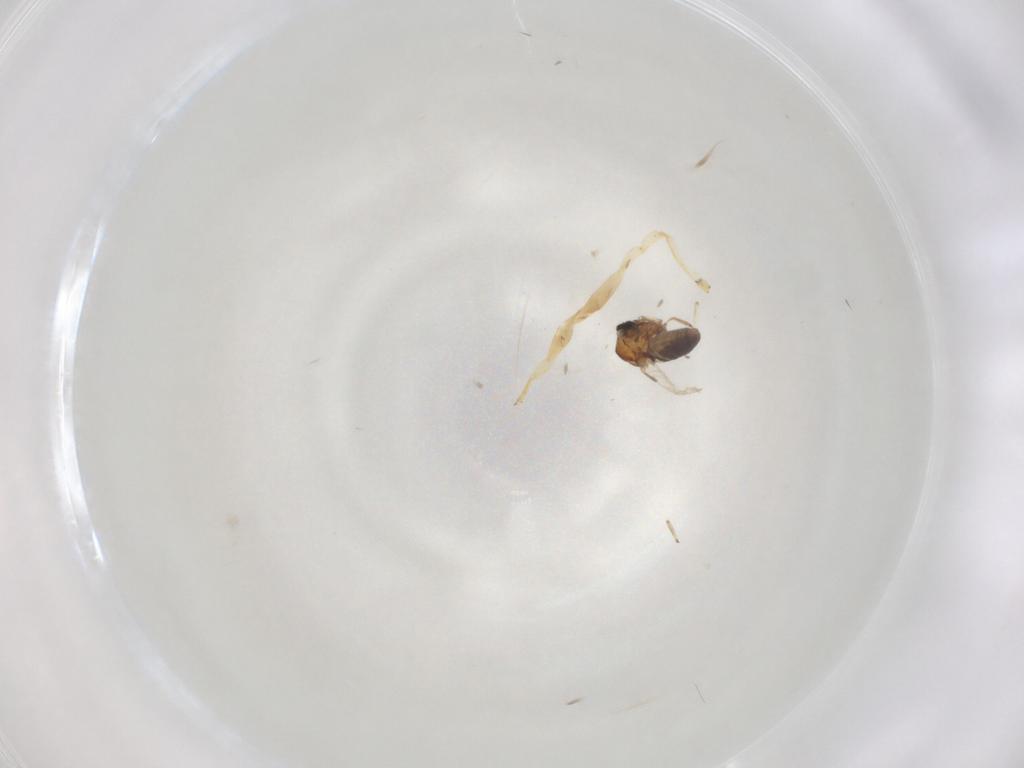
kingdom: Animalia
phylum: Arthropoda
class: Insecta
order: Diptera
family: Ceratopogonidae
